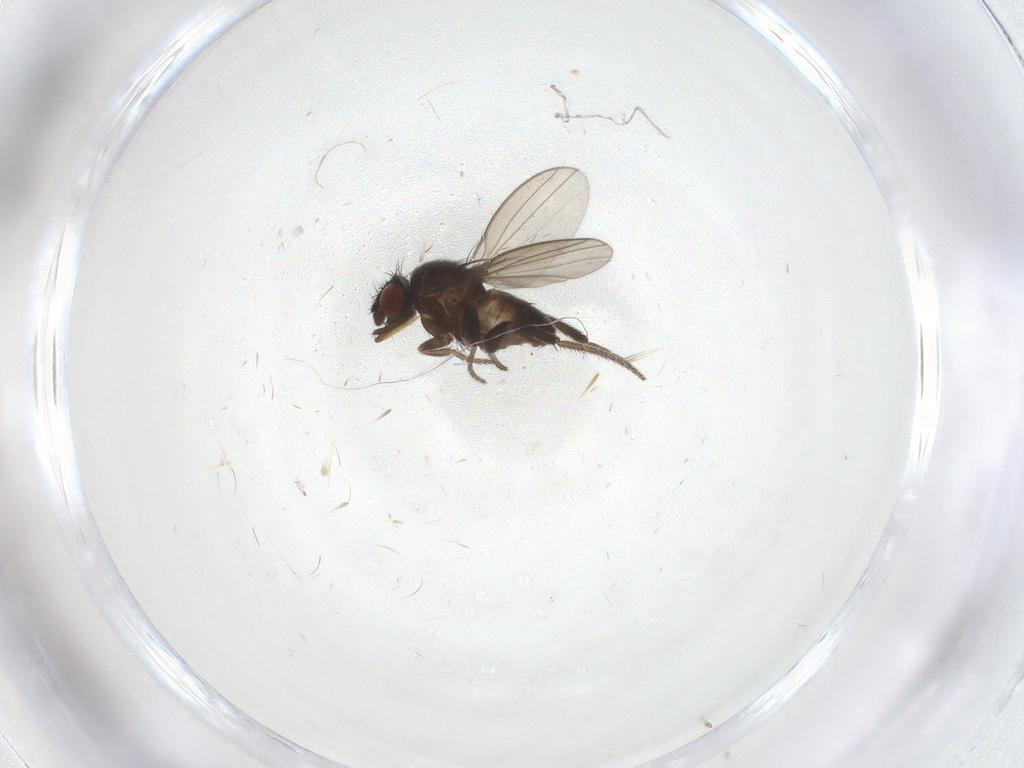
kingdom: Animalia
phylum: Arthropoda
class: Insecta
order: Diptera
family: Milichiidae
